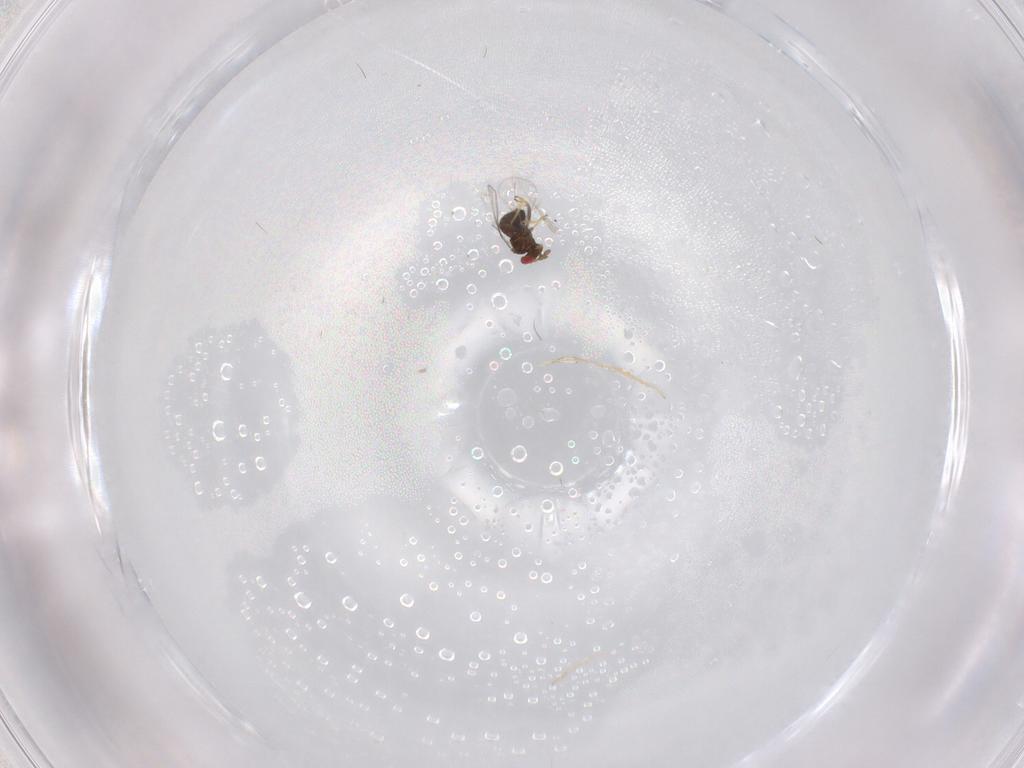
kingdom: Animalia
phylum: Arthropoda
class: Insecta
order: Hymenoptera
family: Trichogrammatidae
